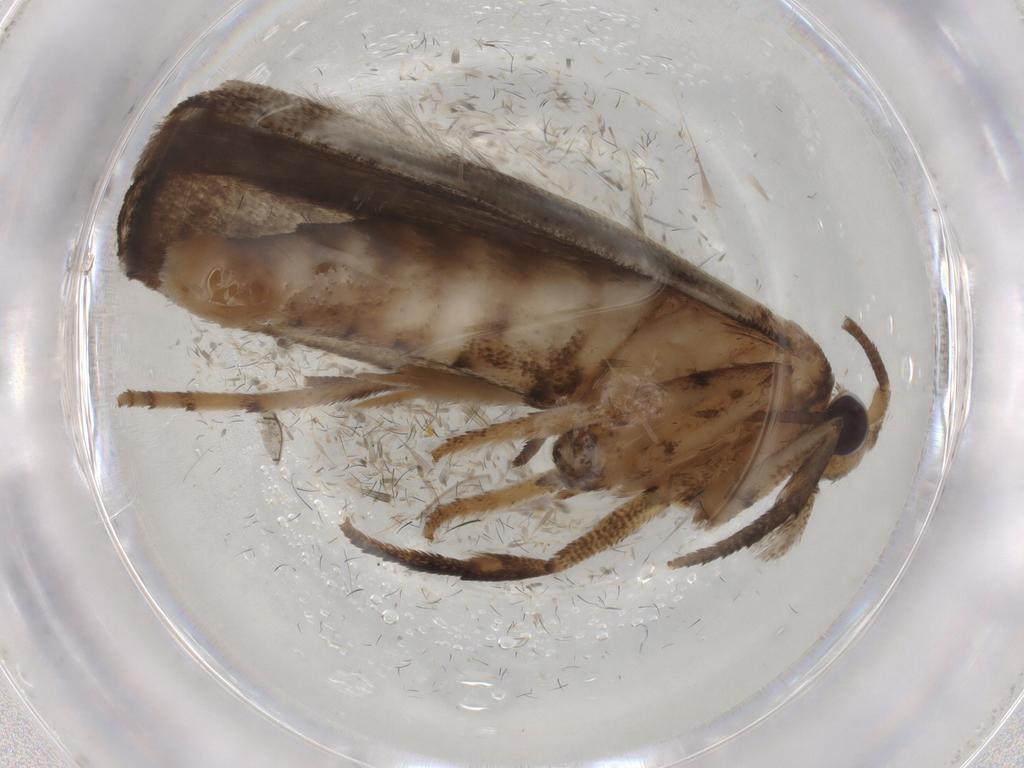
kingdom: Animalia
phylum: Arthropoda
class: Insecta
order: Lepidoptera
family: Yponomeutidae
